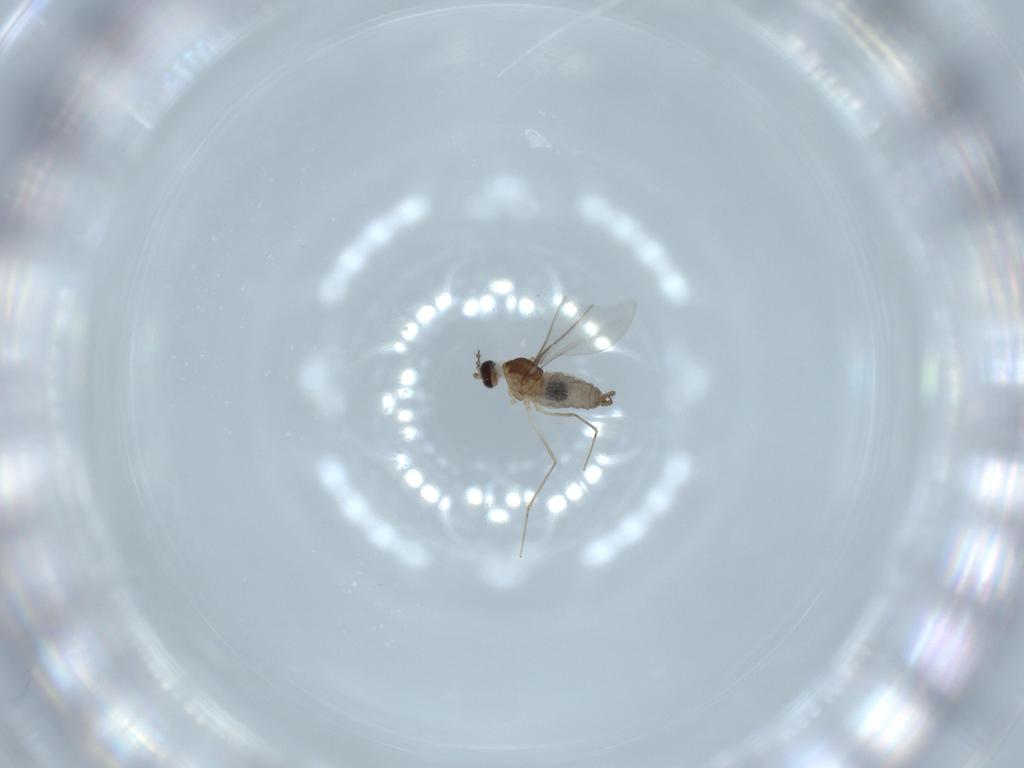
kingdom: Animalia
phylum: Arthropoda
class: Insecta
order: Diptera
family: Cecidomyiidae
